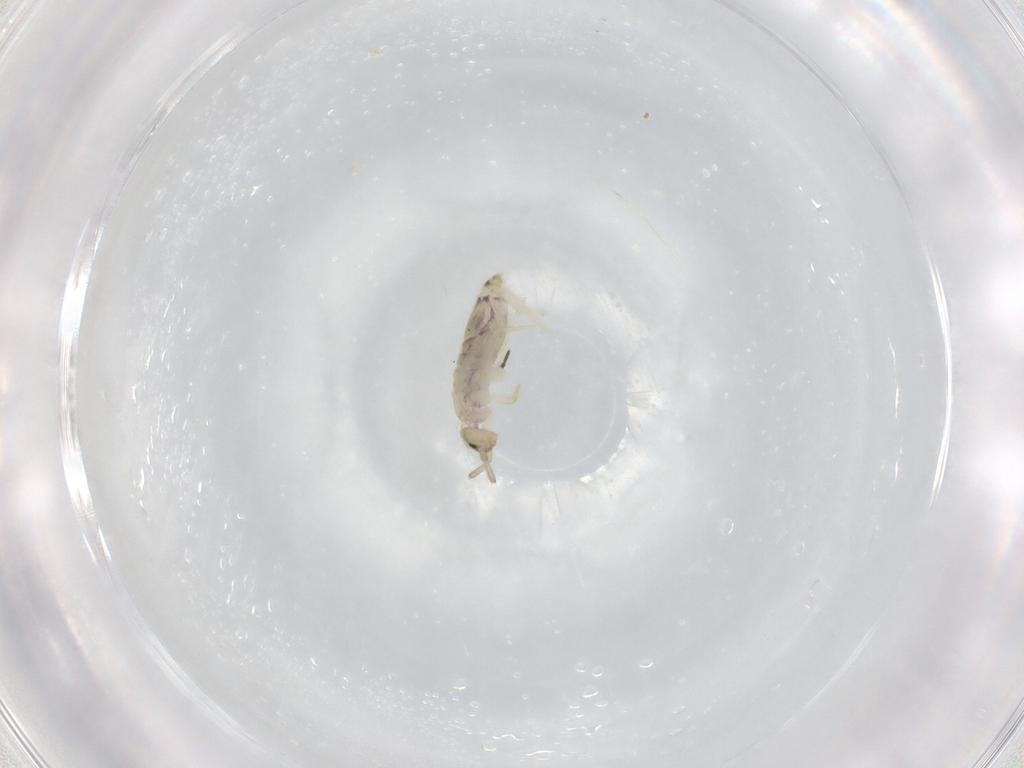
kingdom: Animalia
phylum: Arthropoda
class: Collembola
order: Entomobryomorpha
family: Entomobryidae
